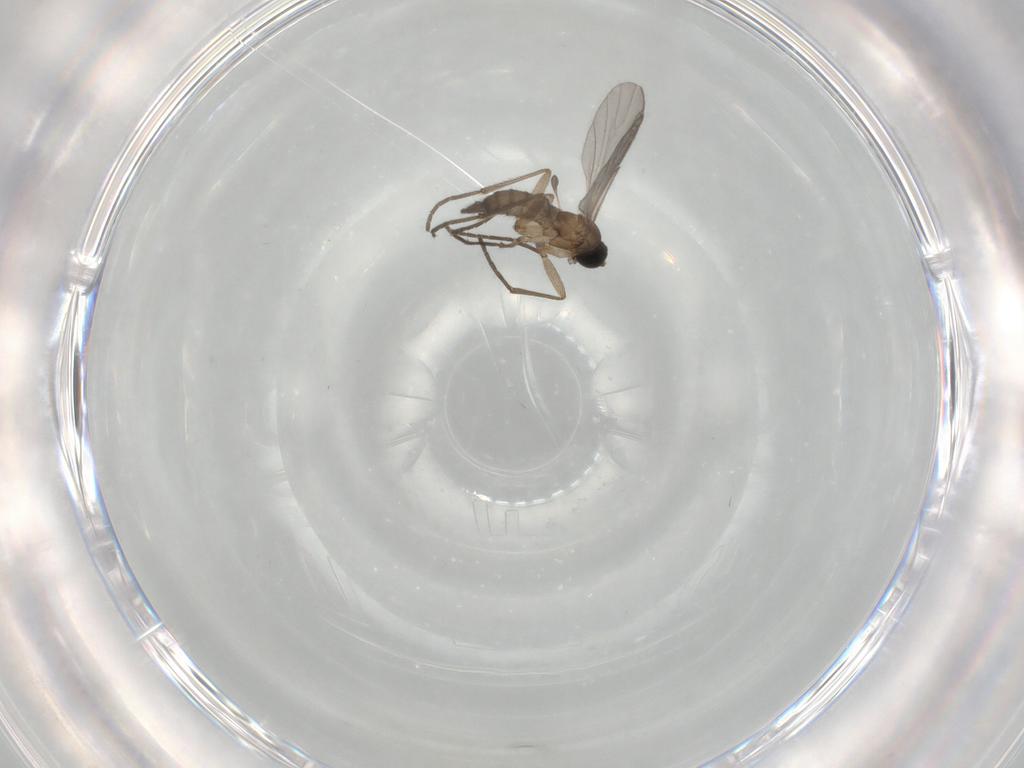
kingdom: Animalia
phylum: Arthropoda
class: Insecta
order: Diptera
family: Sciaridae
